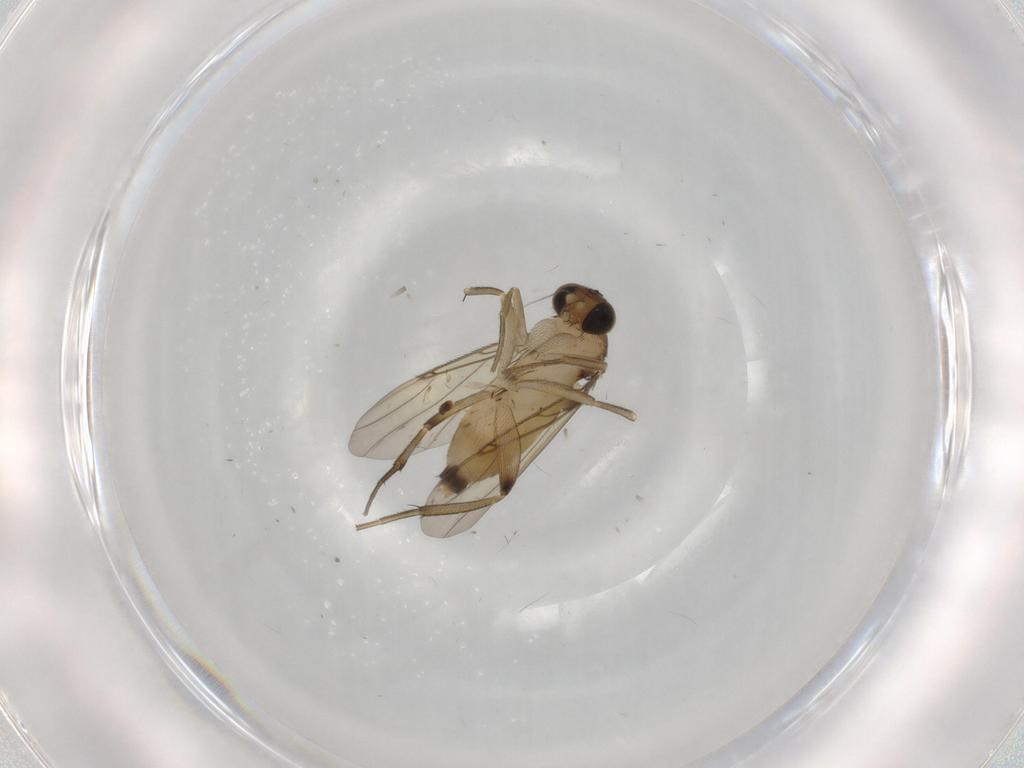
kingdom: Animalia
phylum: Arthropoda
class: Insecta
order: Diptera
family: Phoridae
